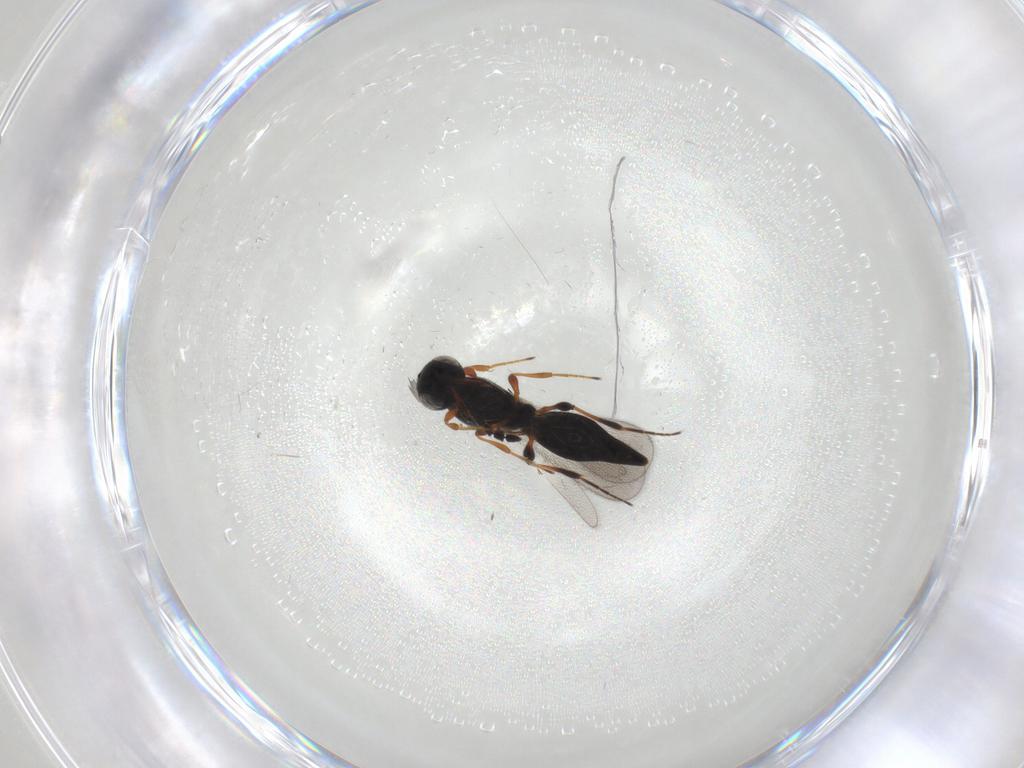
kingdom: Animalia
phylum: Arthropoda
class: Insecta
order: Hymenoptera
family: Platygastridae
